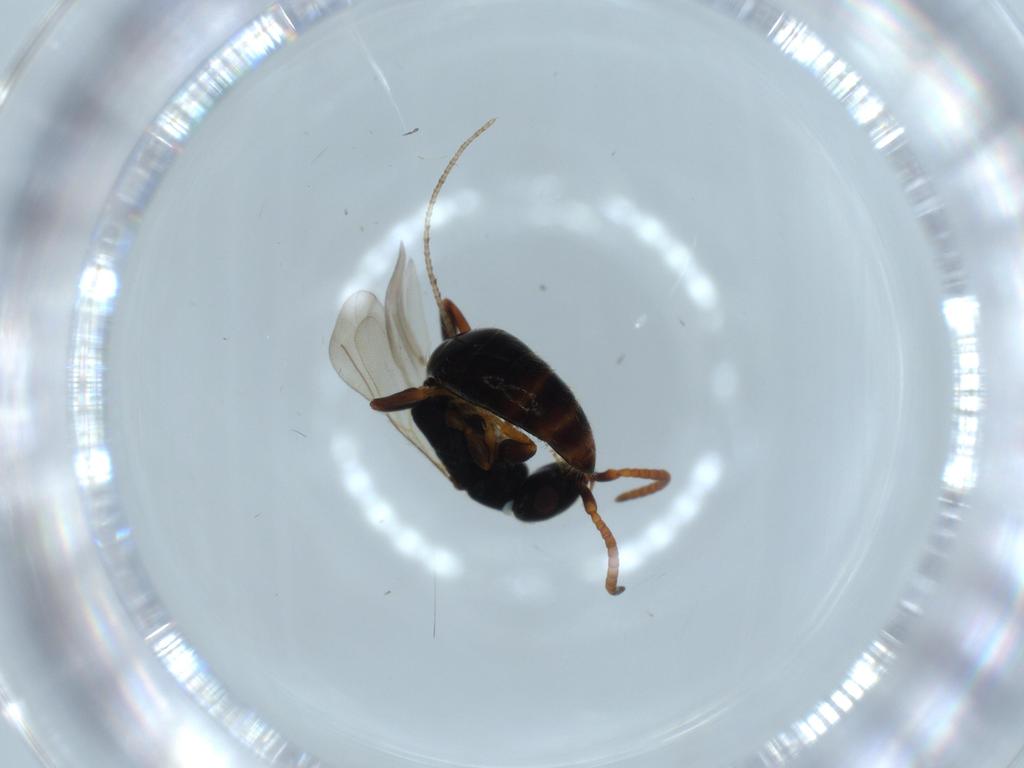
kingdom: Animalia
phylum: Arthropoda
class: Insecta
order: Hymenoptera
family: Bethylidae
